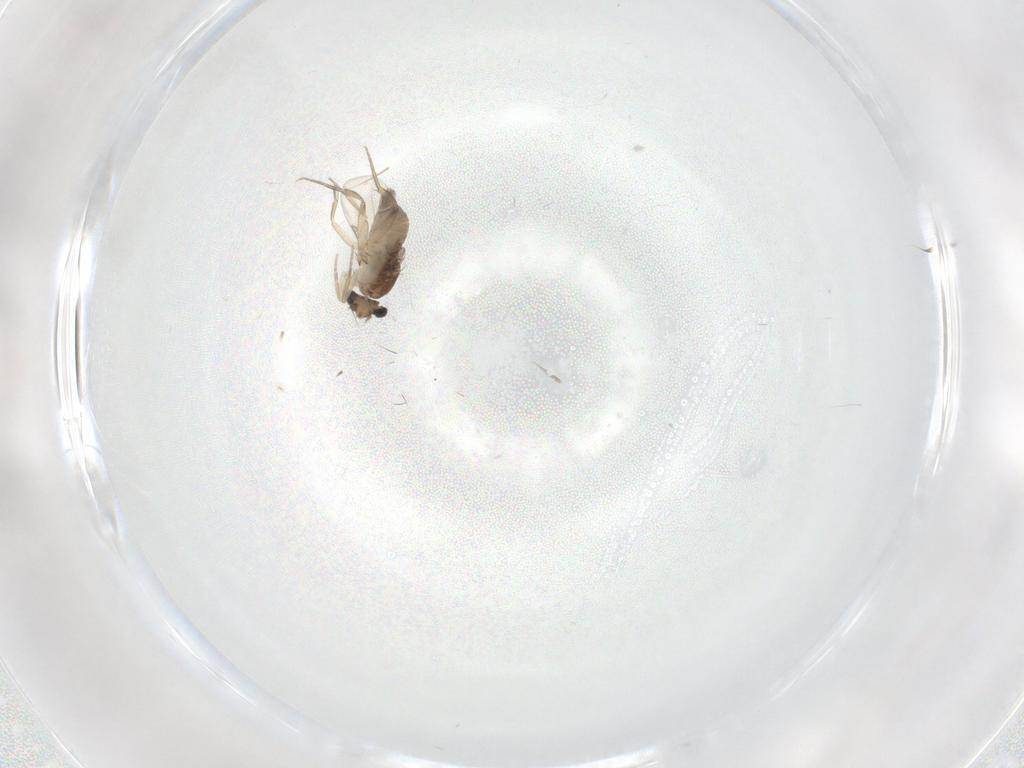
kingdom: Animalia
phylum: Arthropoda
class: Insecta
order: Diptera
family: Phoridae
